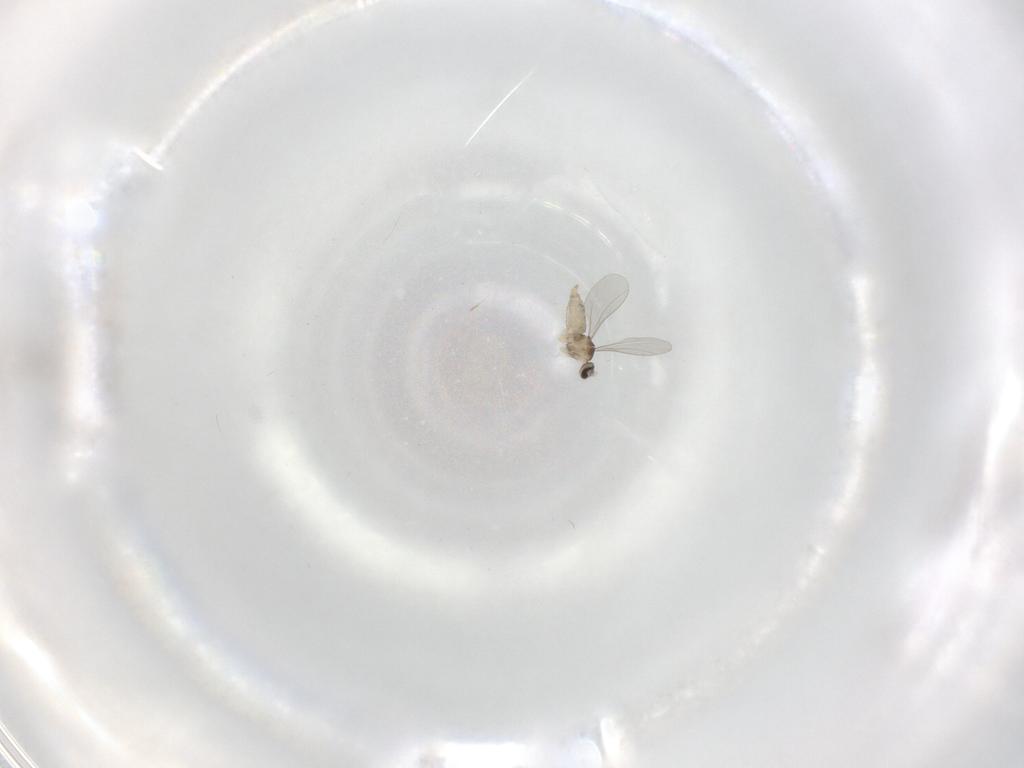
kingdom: Animalia
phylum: Arthropoda
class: Insecta
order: Diptera
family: Cecidomyiidae
